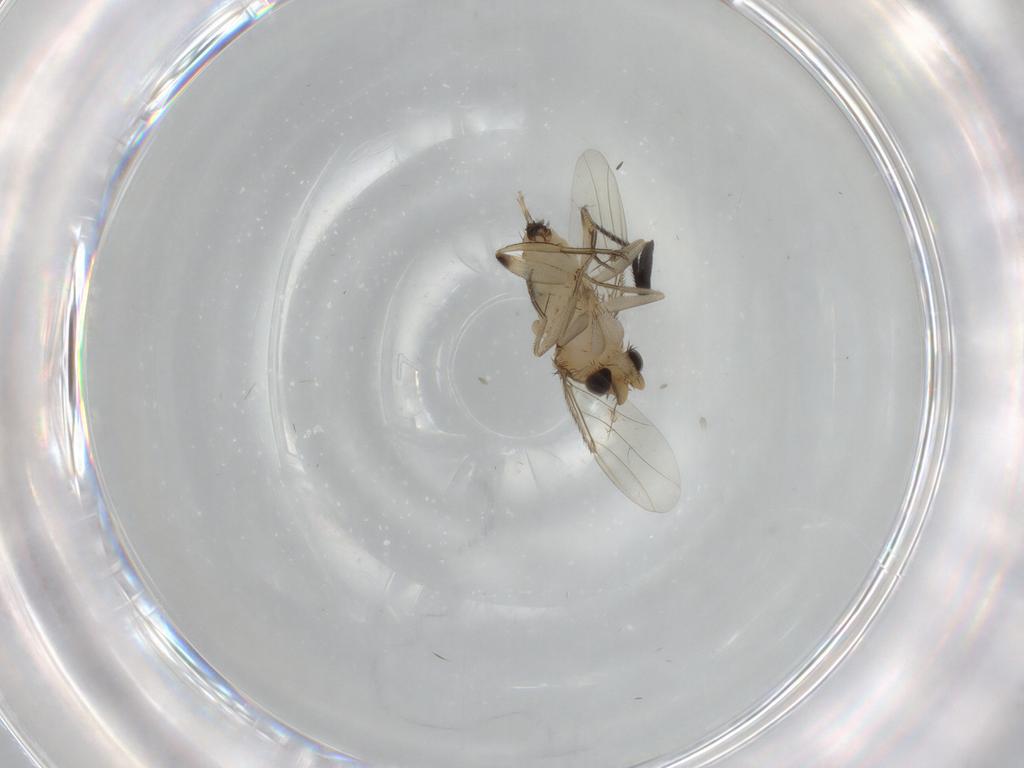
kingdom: Animalia
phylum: Arthropoda
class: Insecta
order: Diptera
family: Phoridae
